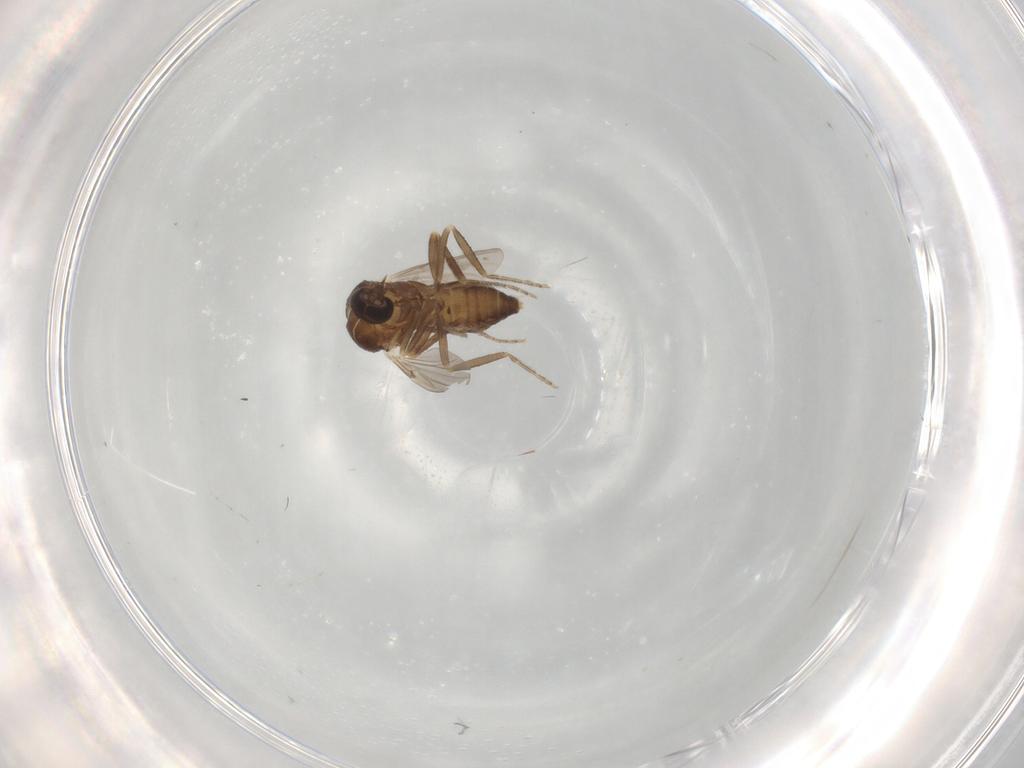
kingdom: Animalia
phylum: Arthropoda
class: Insecta
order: Diptera
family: Ceratopogonidae
